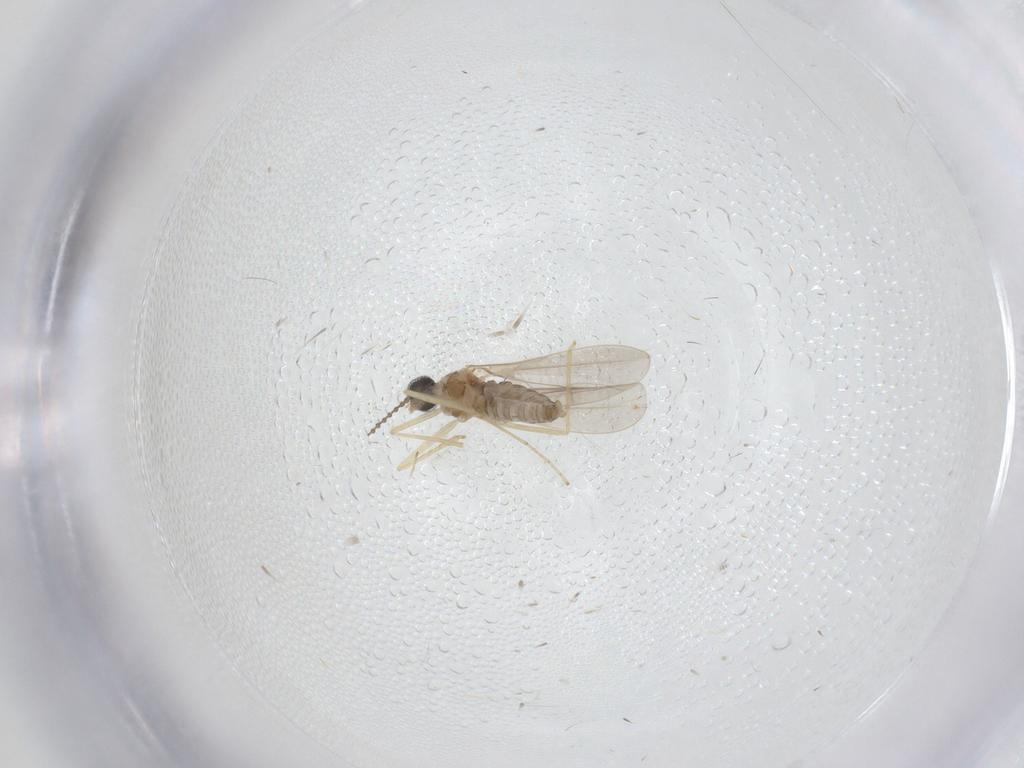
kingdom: Animalia
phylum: Arthropoda
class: Insecta
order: Diptera
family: Cecidomyiidae
